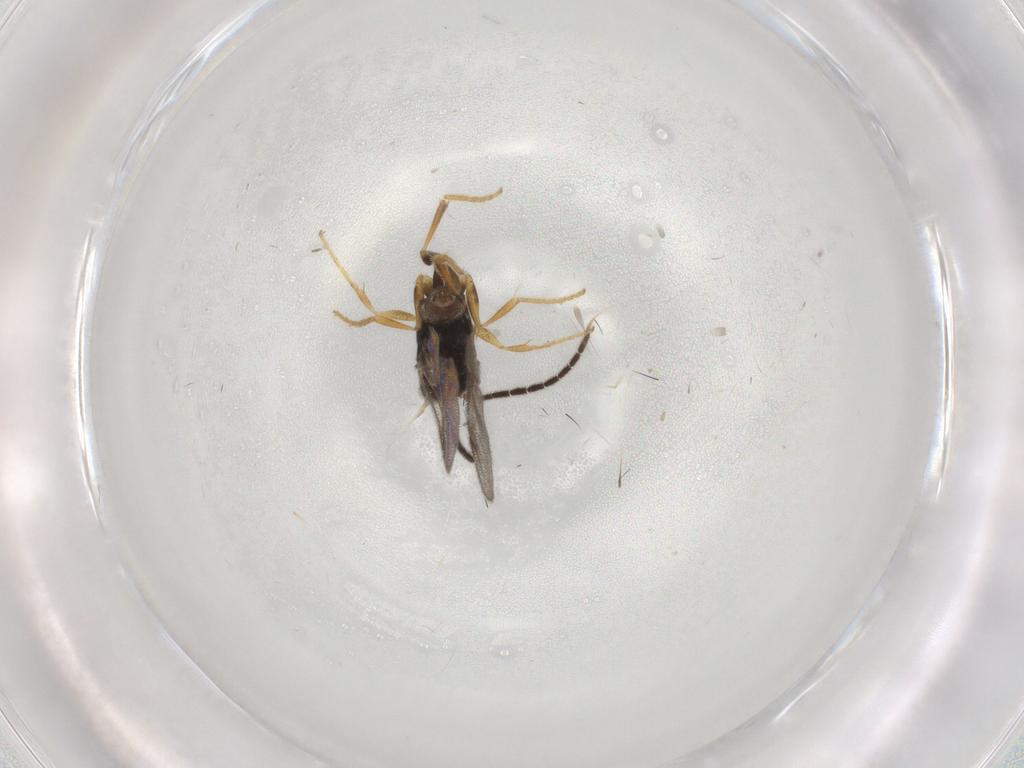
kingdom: Animalia
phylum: Arthropoda
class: Insecta
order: Hymenoptera
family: Dryinidae
